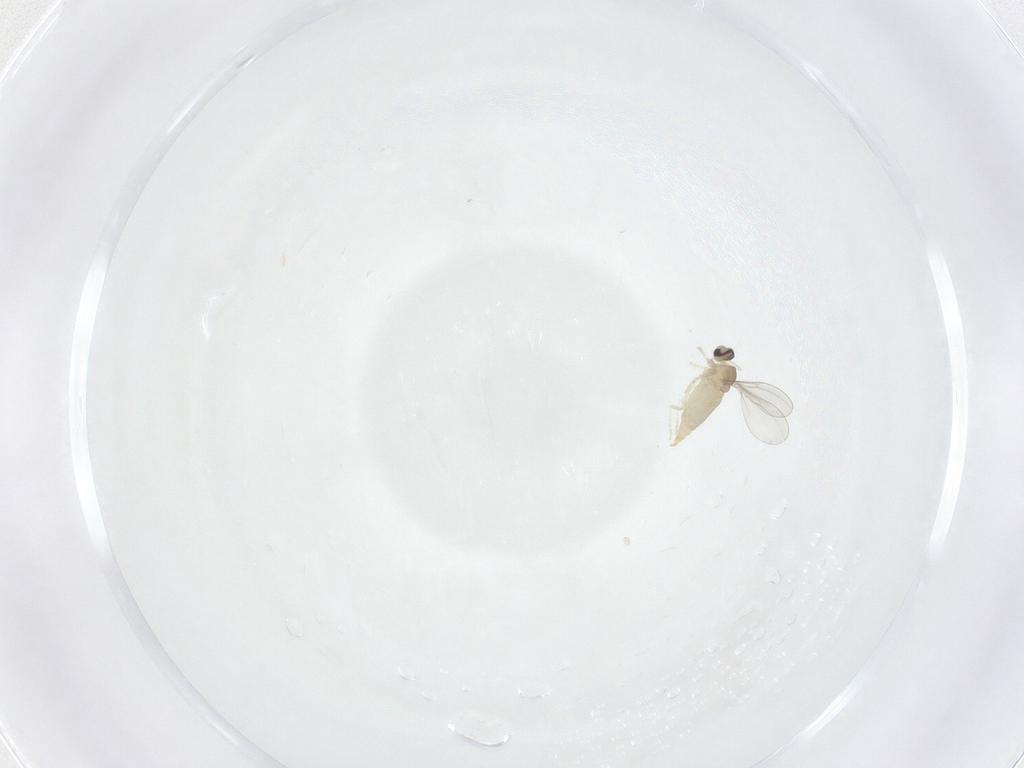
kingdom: Animalia
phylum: Arthropoda
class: Insecta
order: Diptera
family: Cecidomyiidae
